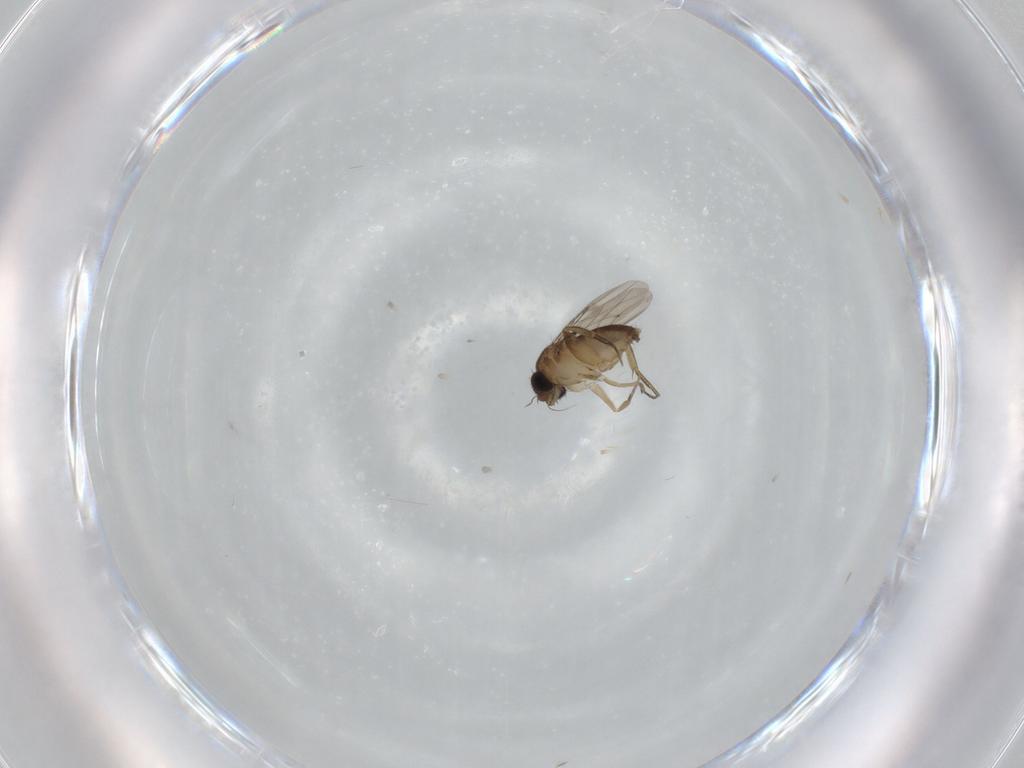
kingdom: Animalia
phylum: Arthropoda
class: Insecta
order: Diptera
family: Phoridae
